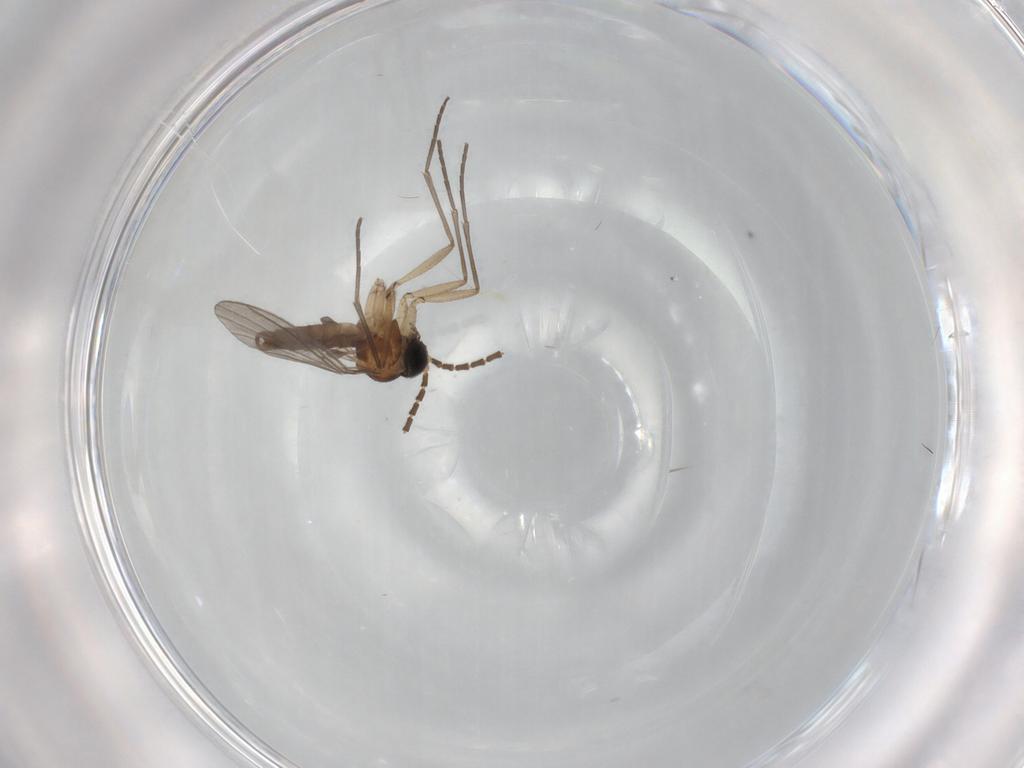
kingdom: Animalia
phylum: Arthropoda
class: Insecta
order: Diptera
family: Sciaridae
